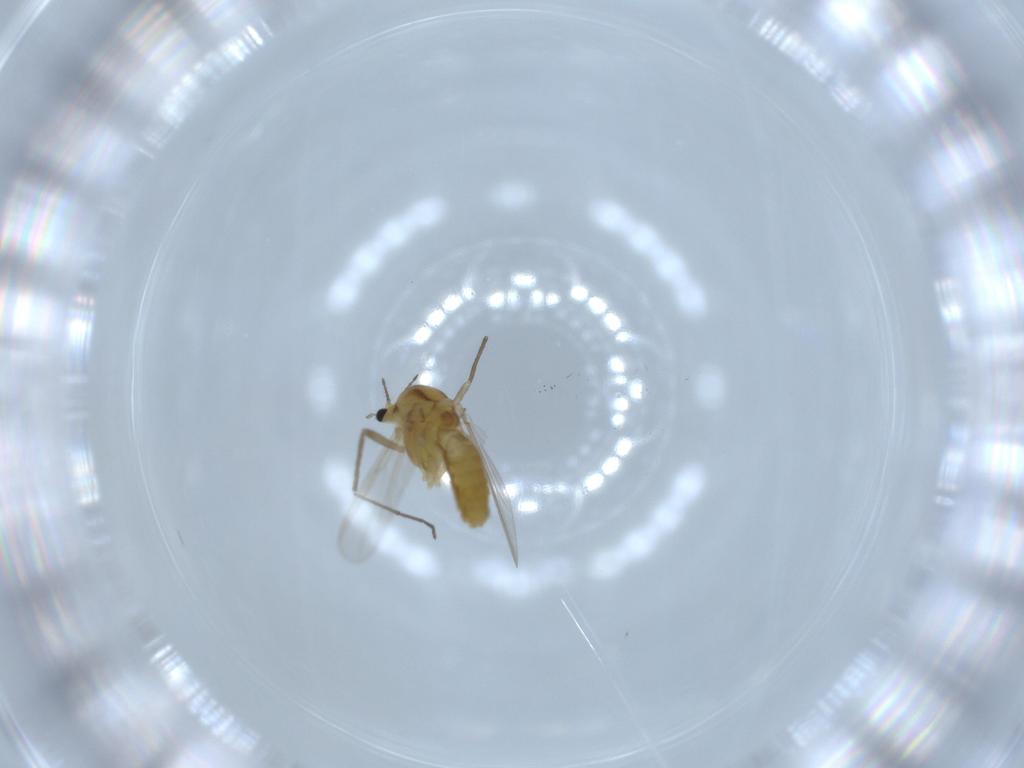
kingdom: Animalia
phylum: Arthropoda
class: Insecta
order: Diptera
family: Chironomidae
